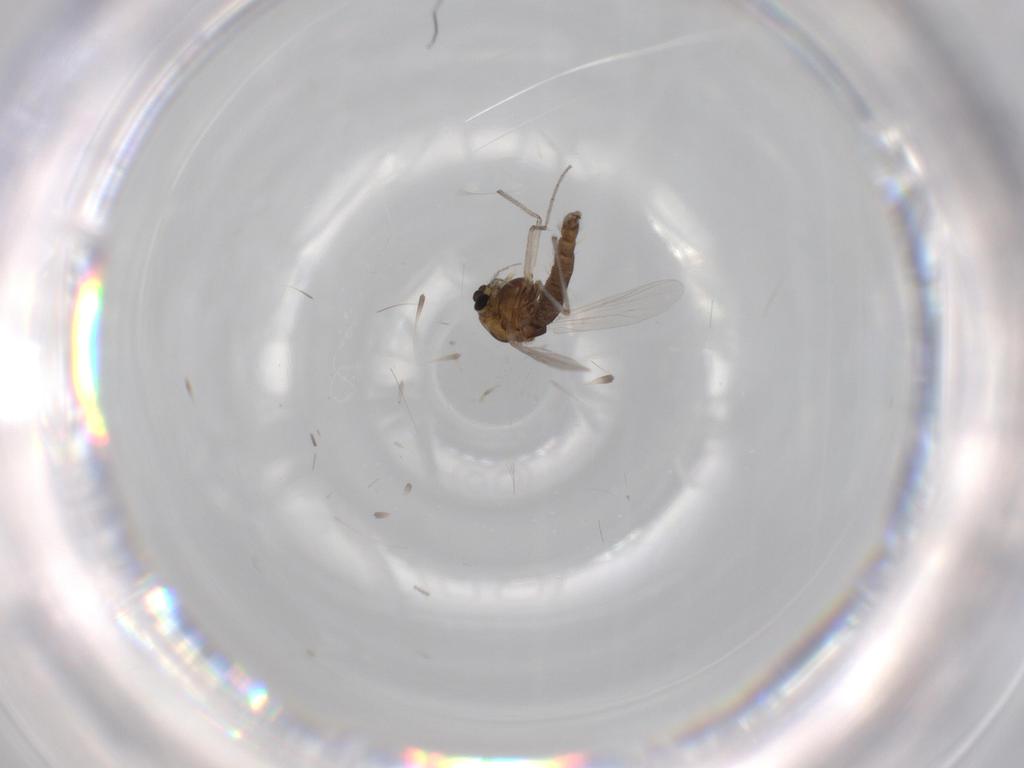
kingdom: Animalia
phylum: Arthropoda
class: Insecta
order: Diptera
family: Chironomidae
